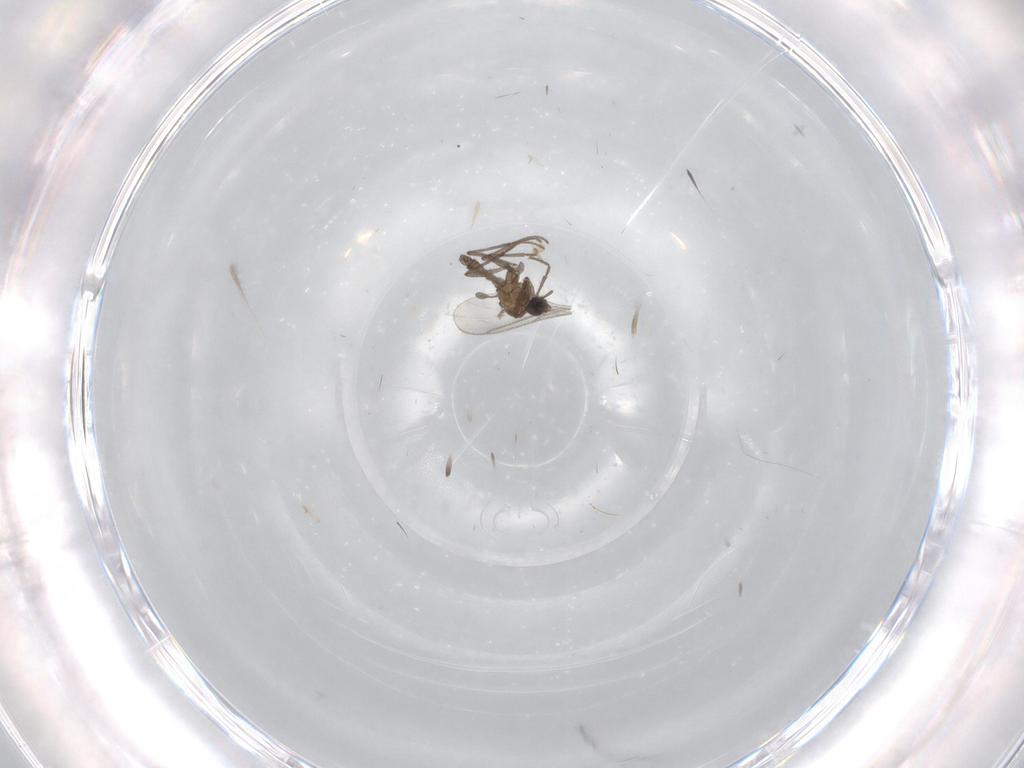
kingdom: Animalia
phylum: Arthropoda
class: Insecta
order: Diptera
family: Sciaridae
